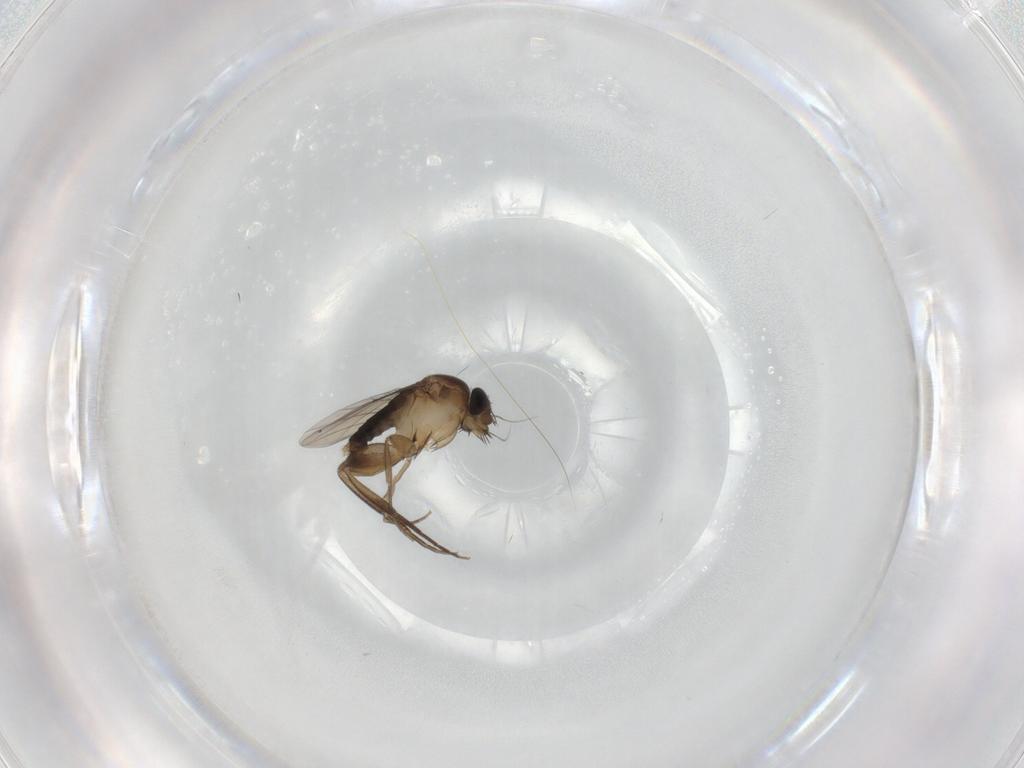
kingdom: Animalia
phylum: Arthropoda
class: Insecta
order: Diptera
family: Phoridae
